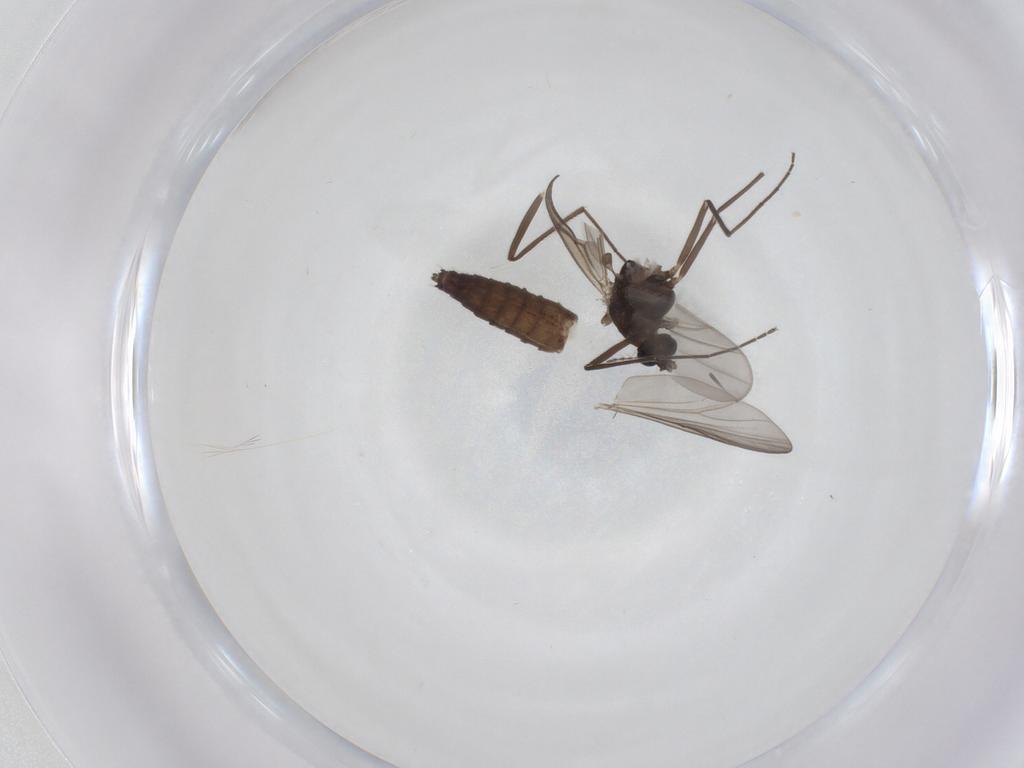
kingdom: Animalia
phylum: Arthropoda
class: Insecta
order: Diptera
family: Chironomidae
